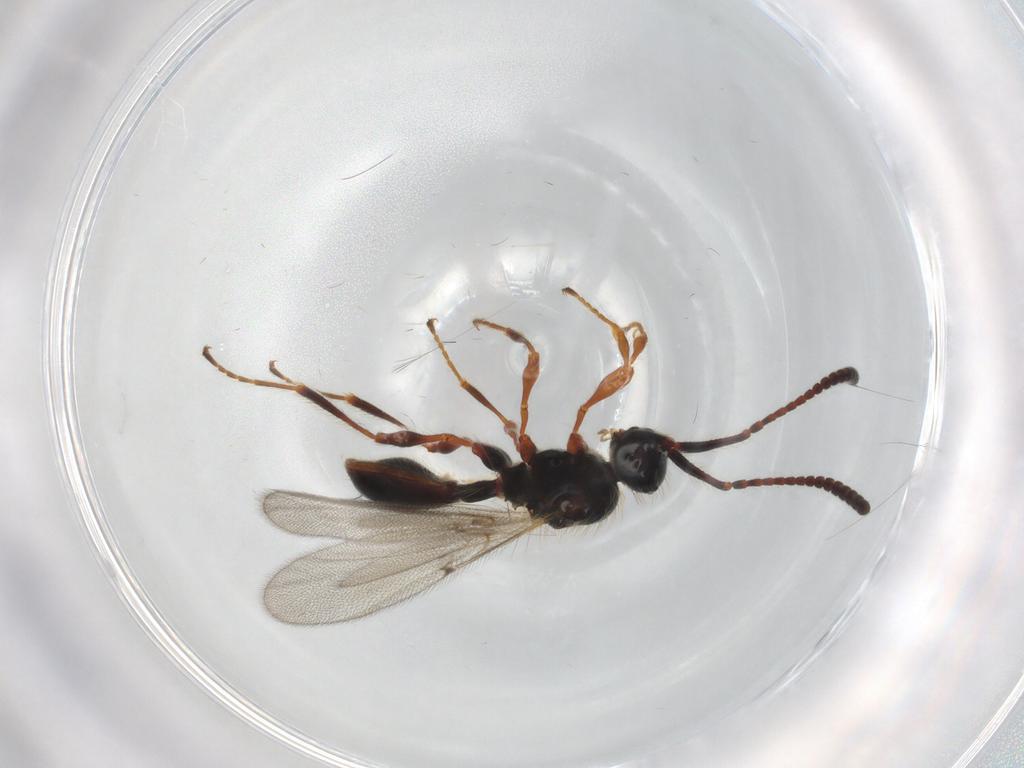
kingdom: Animalia
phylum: Arthropoda
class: Insecta
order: Hymenoptera
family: Diapriidae
